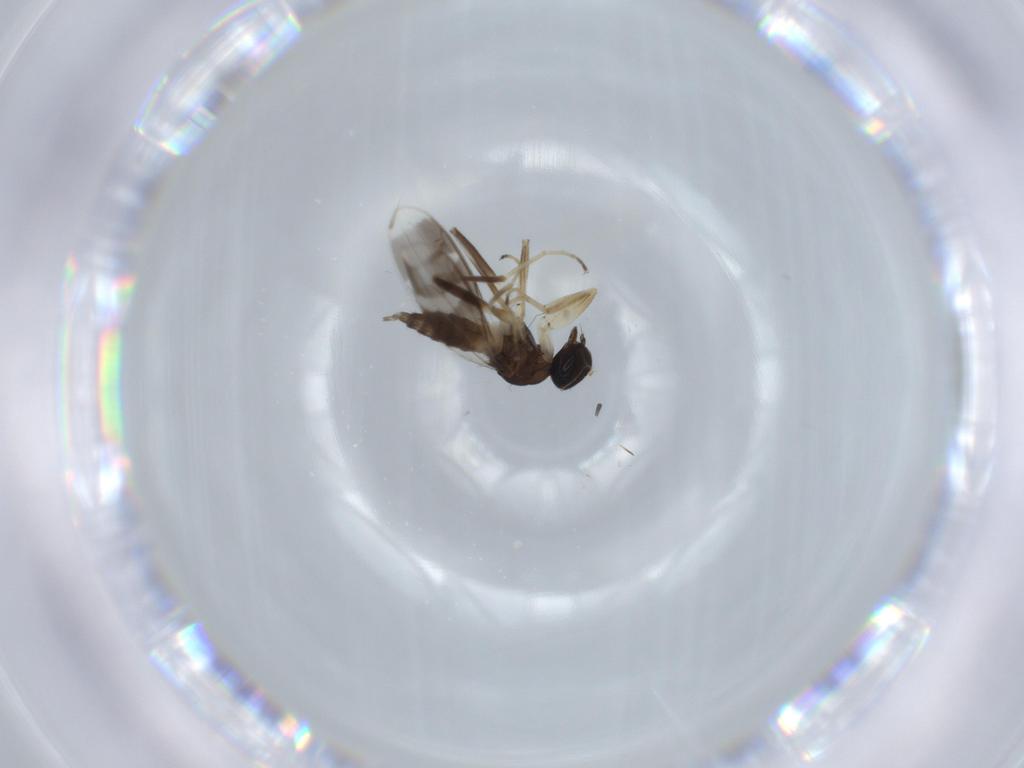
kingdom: Animalia
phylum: Arthropoda
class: Insecta
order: Diptera
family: Hybotidae
